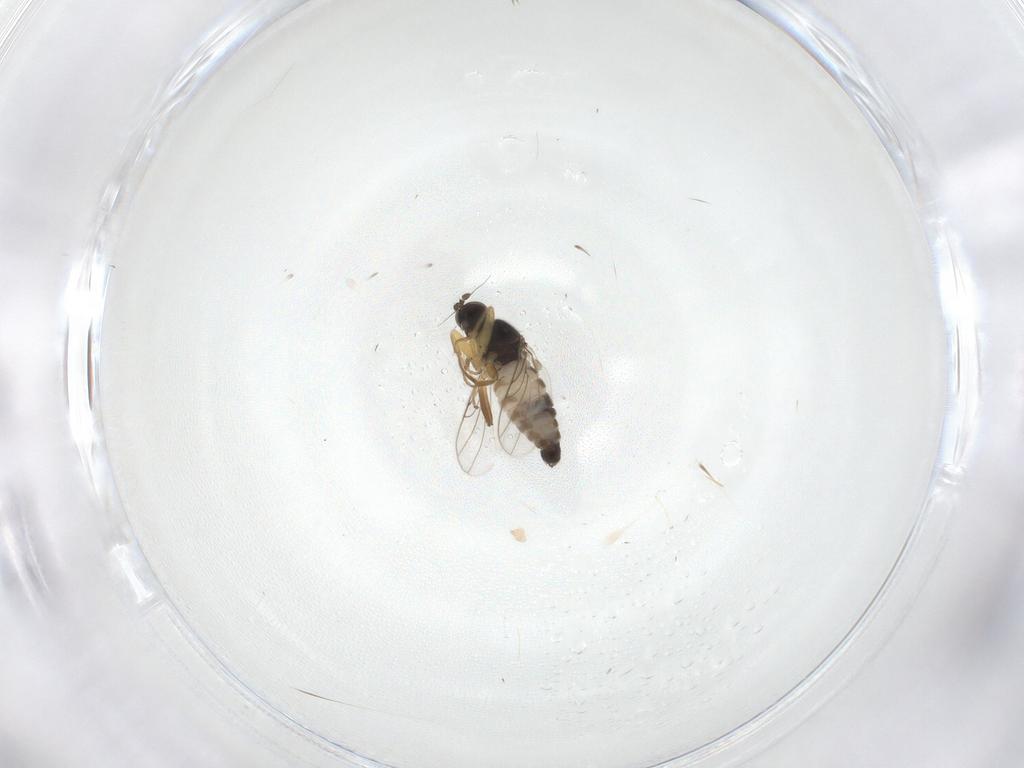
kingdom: Animalia
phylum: Arthropoda
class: Insecta
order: Diptera
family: Hybotidae
